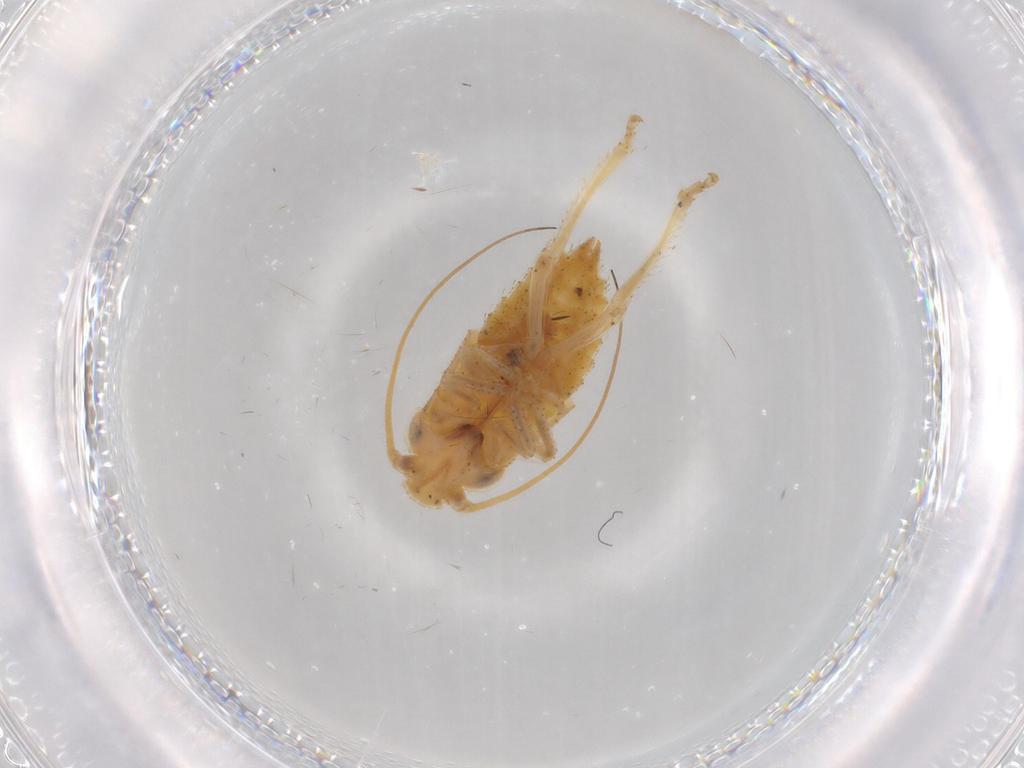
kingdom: Animalia
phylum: Arthropoda
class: Insecta
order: Hemiptera
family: Cicadellidae
